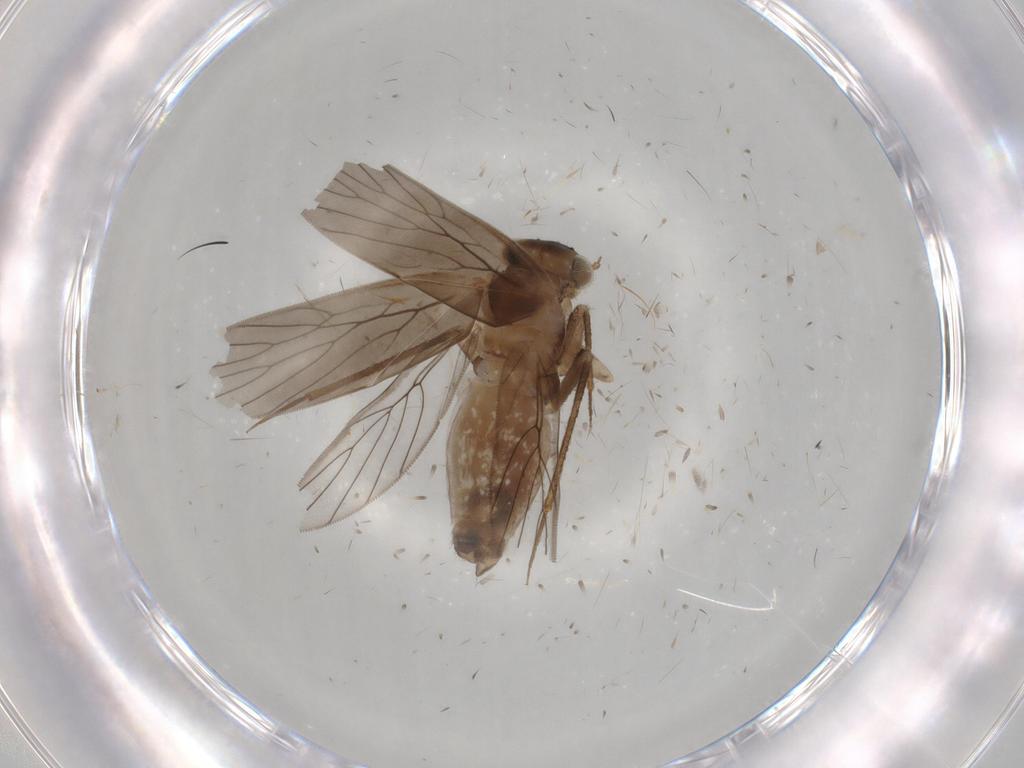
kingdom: Animalia
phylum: Arthropoda
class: Insecta
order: Psocodea
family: Lepidopsocidae
